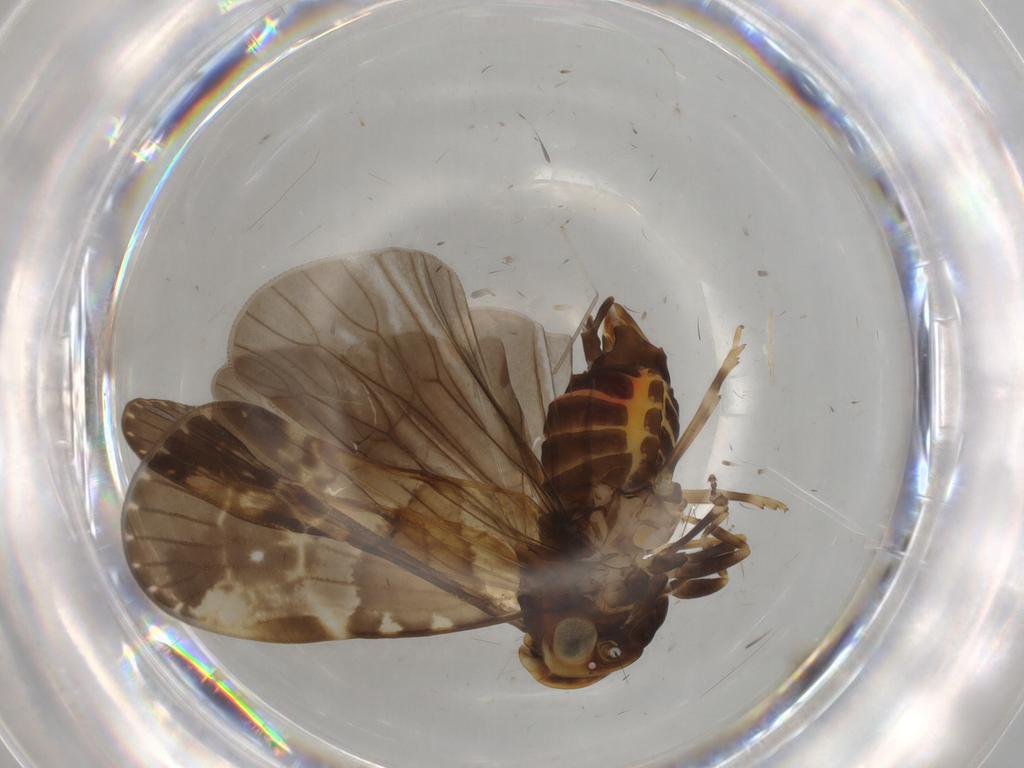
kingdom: Animalia
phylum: Arthropoda
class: Insecta
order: Hemiptera
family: Cixiidae
